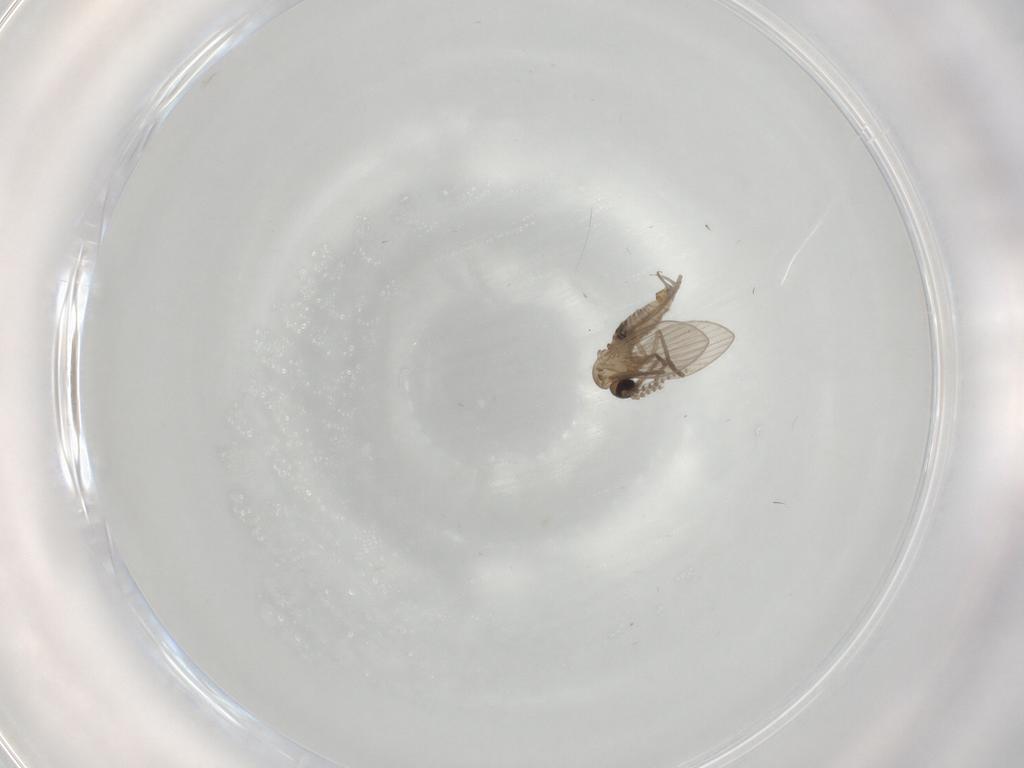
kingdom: Animalia
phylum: Arthropoda
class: Insecta
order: Diptera
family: Psychodidae
